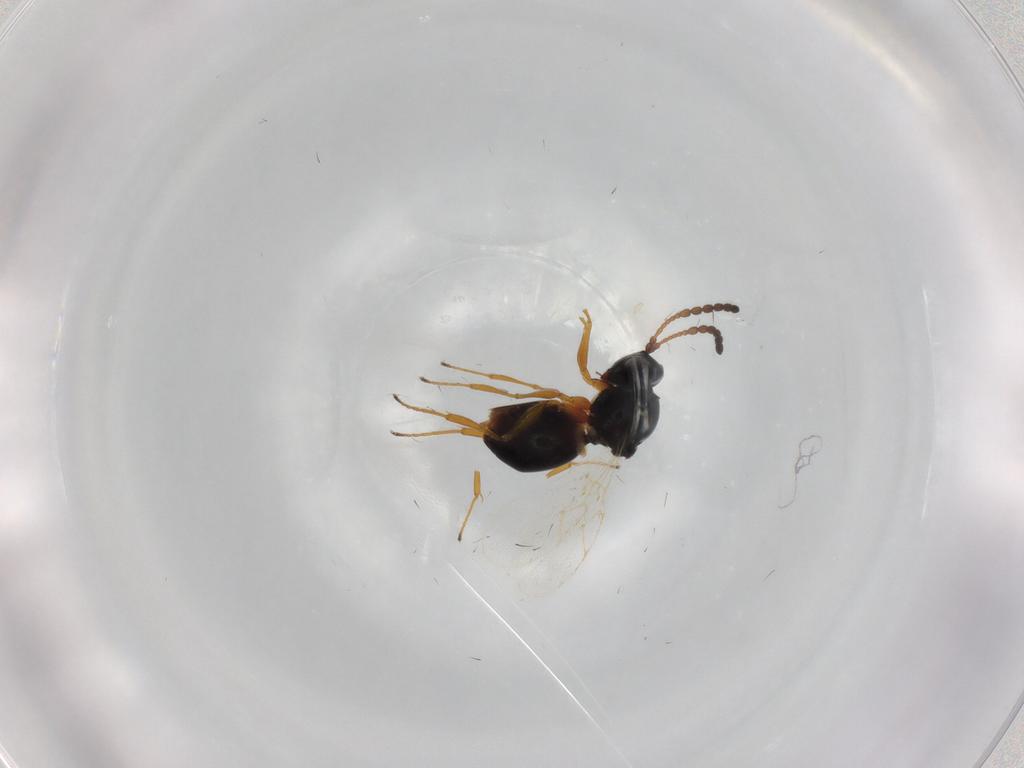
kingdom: Animalia
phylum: Arthropoda
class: Insecta
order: Hymenoptera
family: Figitidae
